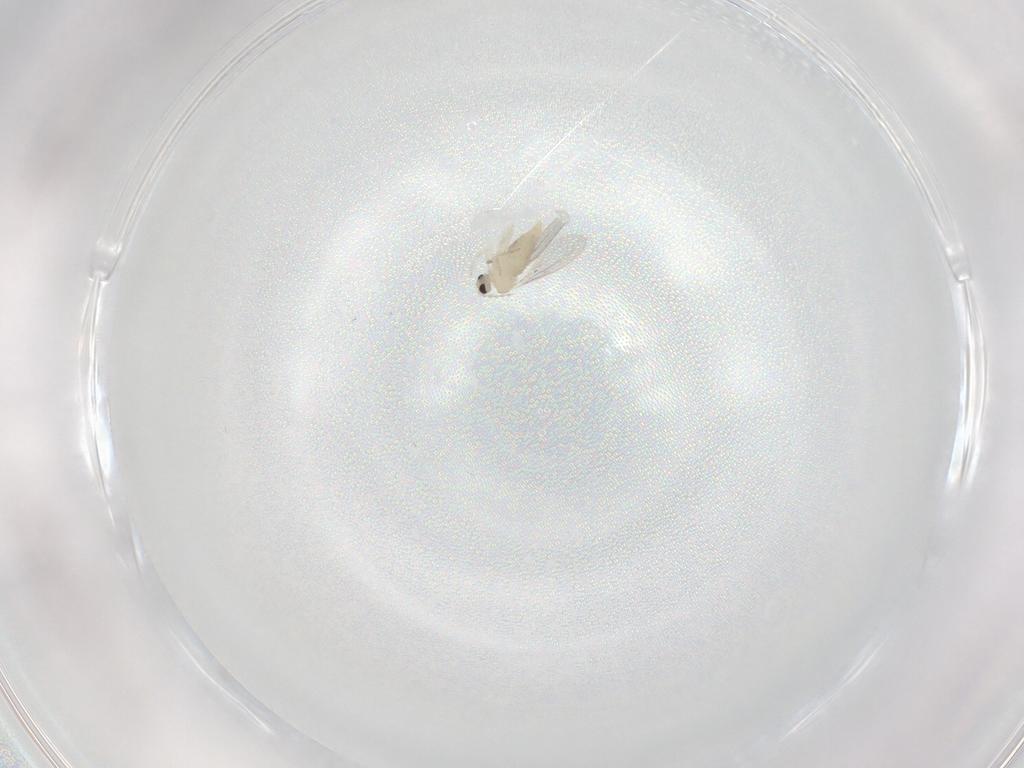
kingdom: Animalia
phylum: Arthropoda
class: Insecta
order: Diptera
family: Cecidomyiidae
